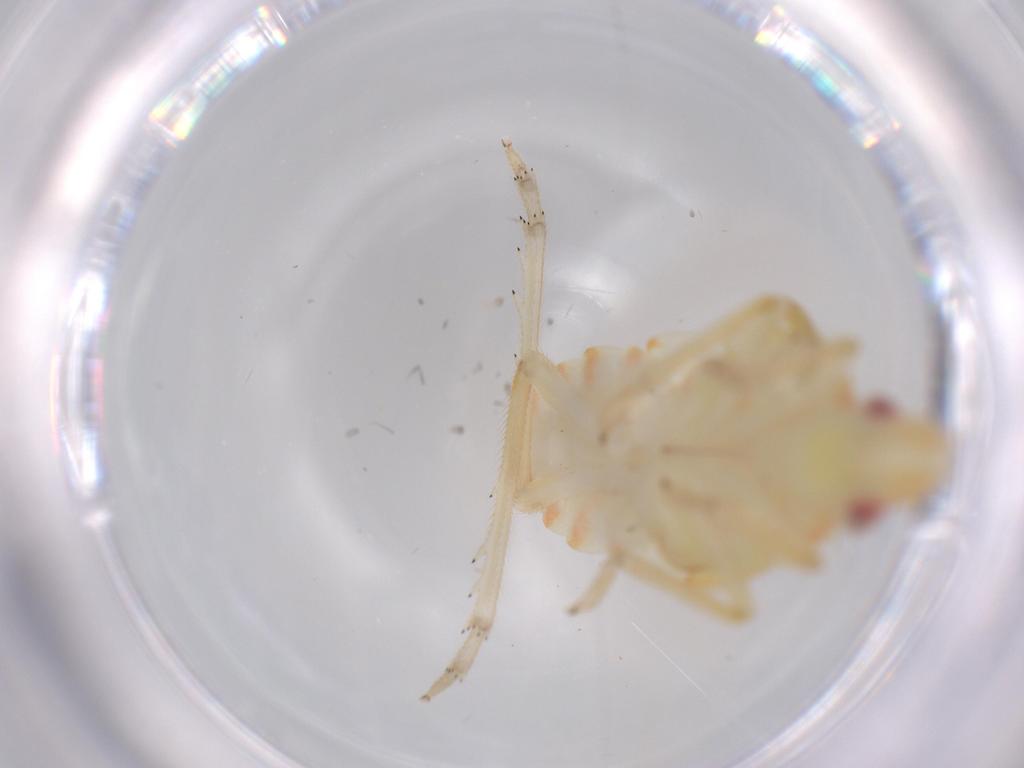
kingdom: Animalia
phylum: Arthropoda
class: Insecta
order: Hemiptera
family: Tropiduchidae
